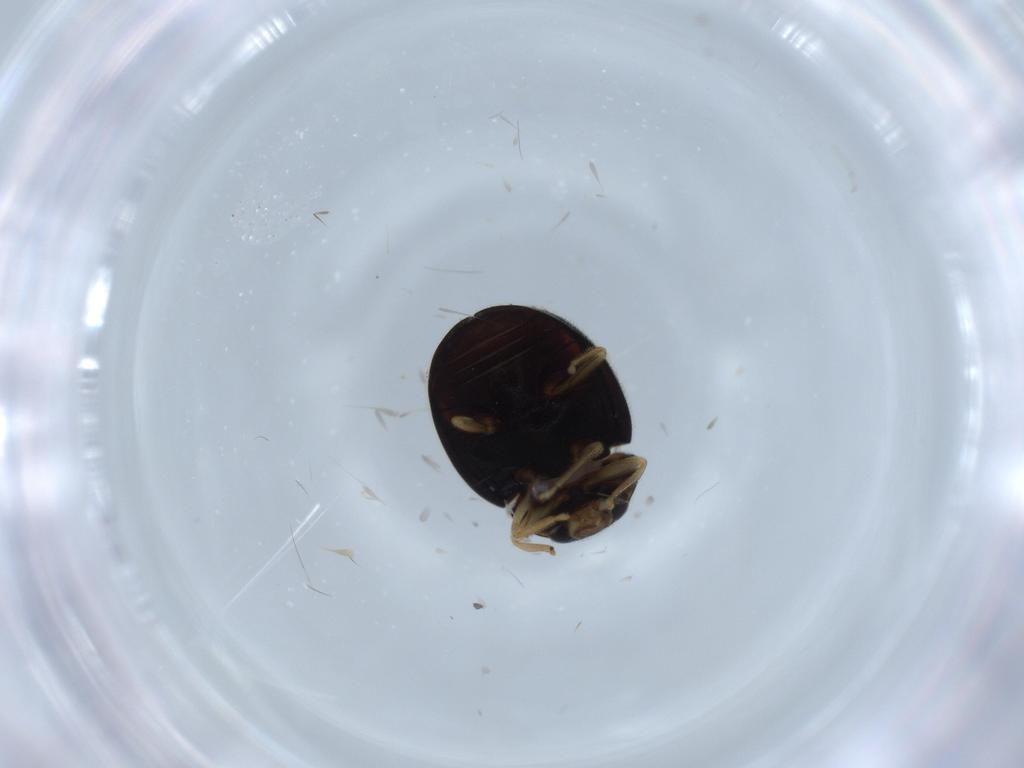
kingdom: Animalia
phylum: Arthropoda
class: Insecta
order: Coleoptera
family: Coccinellidae
